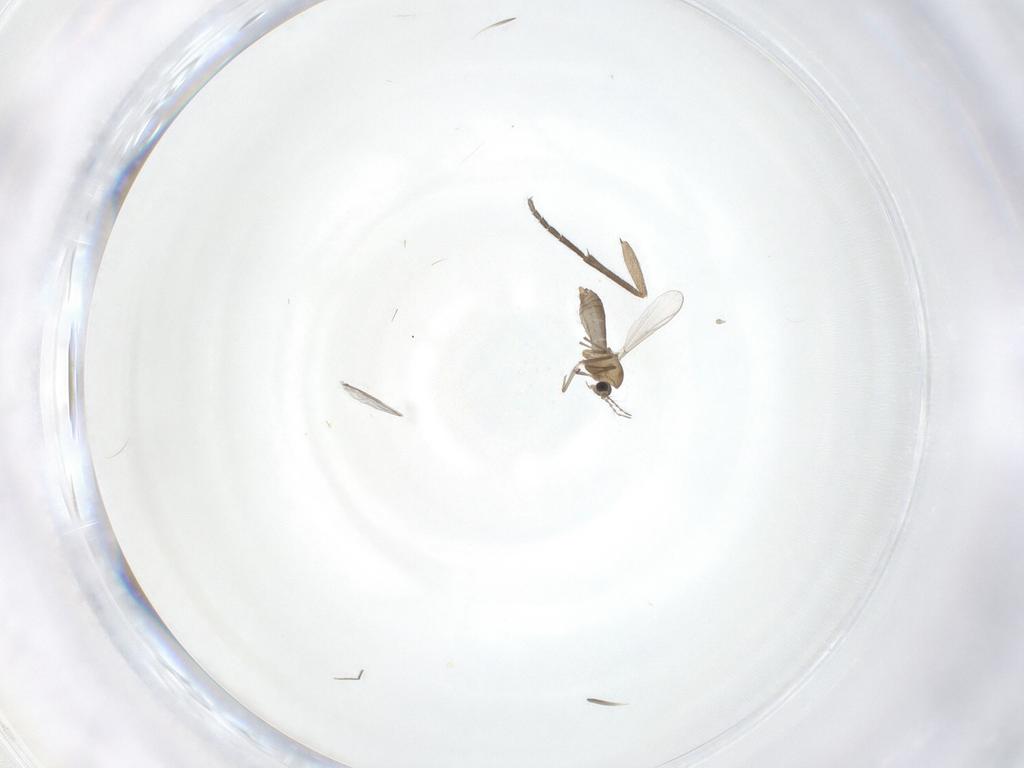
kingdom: Animalia
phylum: Arthropoda
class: Insecta
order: Diptera
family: Chironomidae
